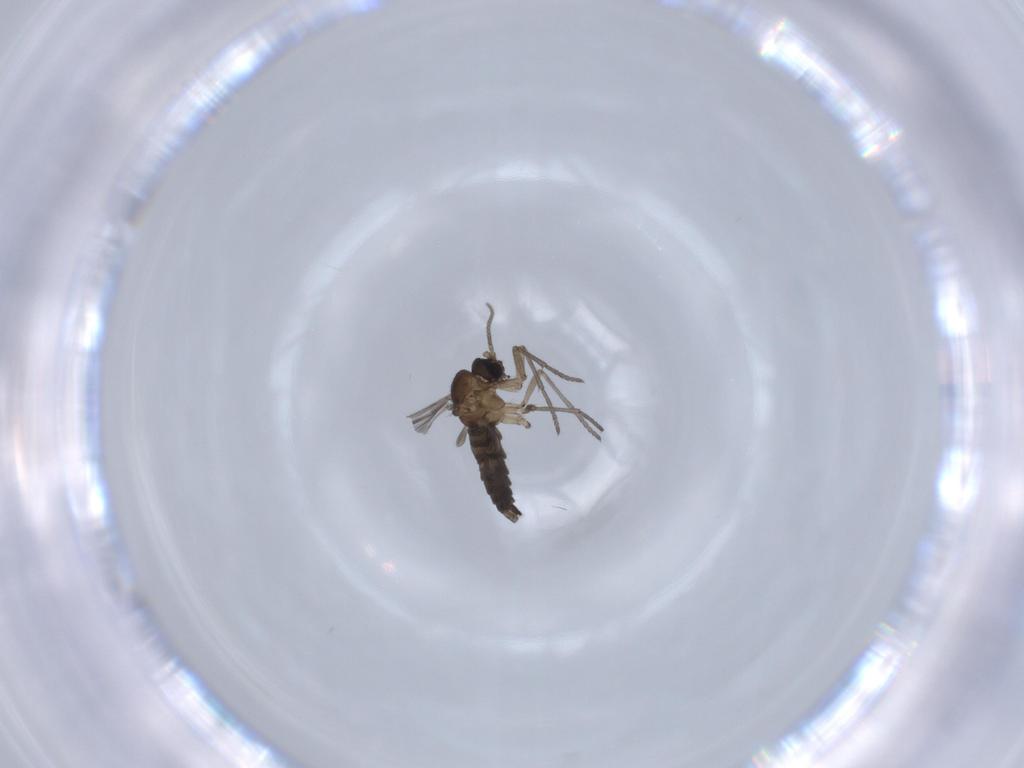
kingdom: Animalia
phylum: Arthropoda
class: Insecta
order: Diptera
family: Sciaridae
